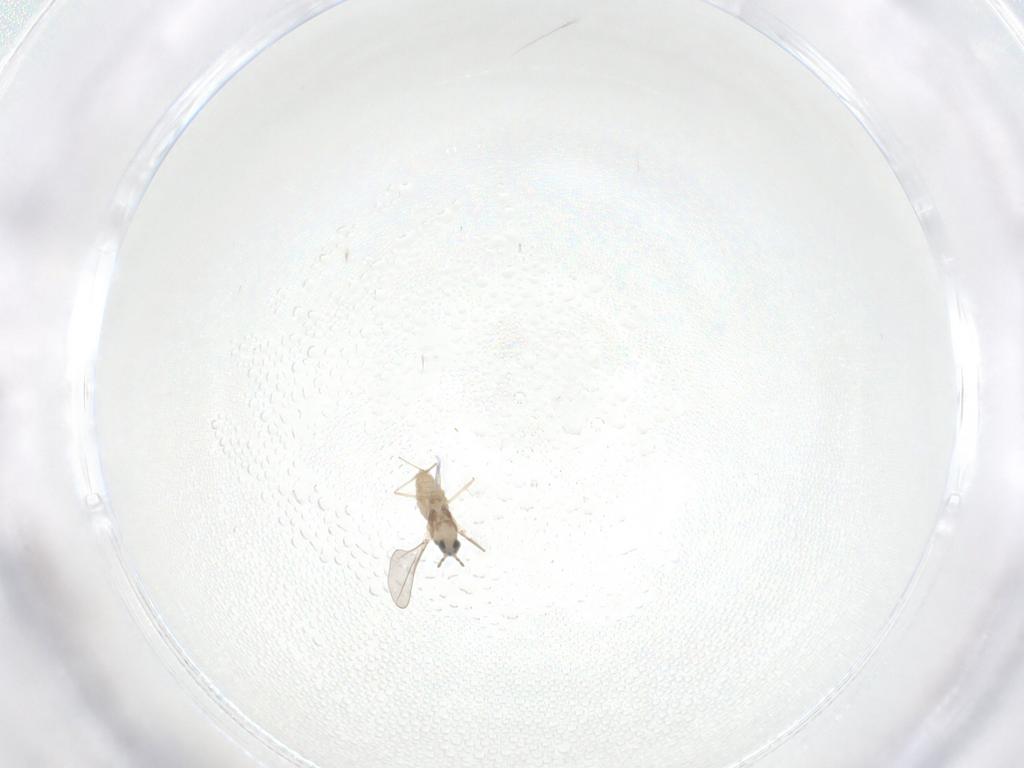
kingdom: Animalia
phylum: Arthropoda
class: Insecta
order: Diptera
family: Cecidomyiidae
